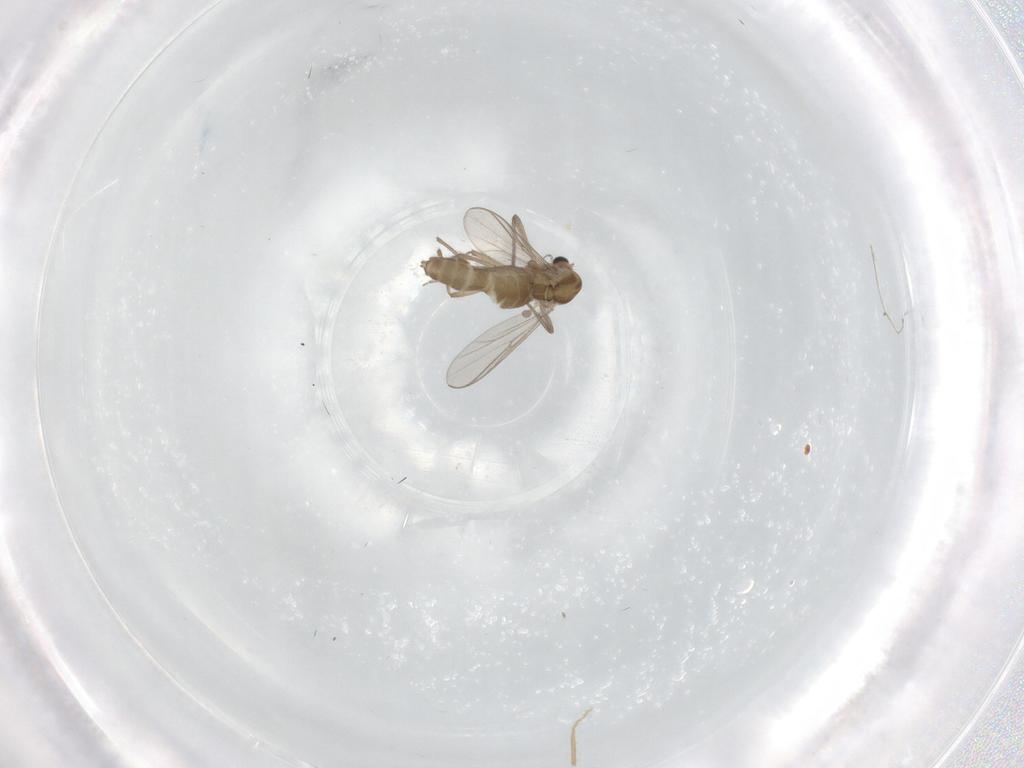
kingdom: Animalia
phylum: Arthropoda
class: Insecta
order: Diptera
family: Chironomidae
